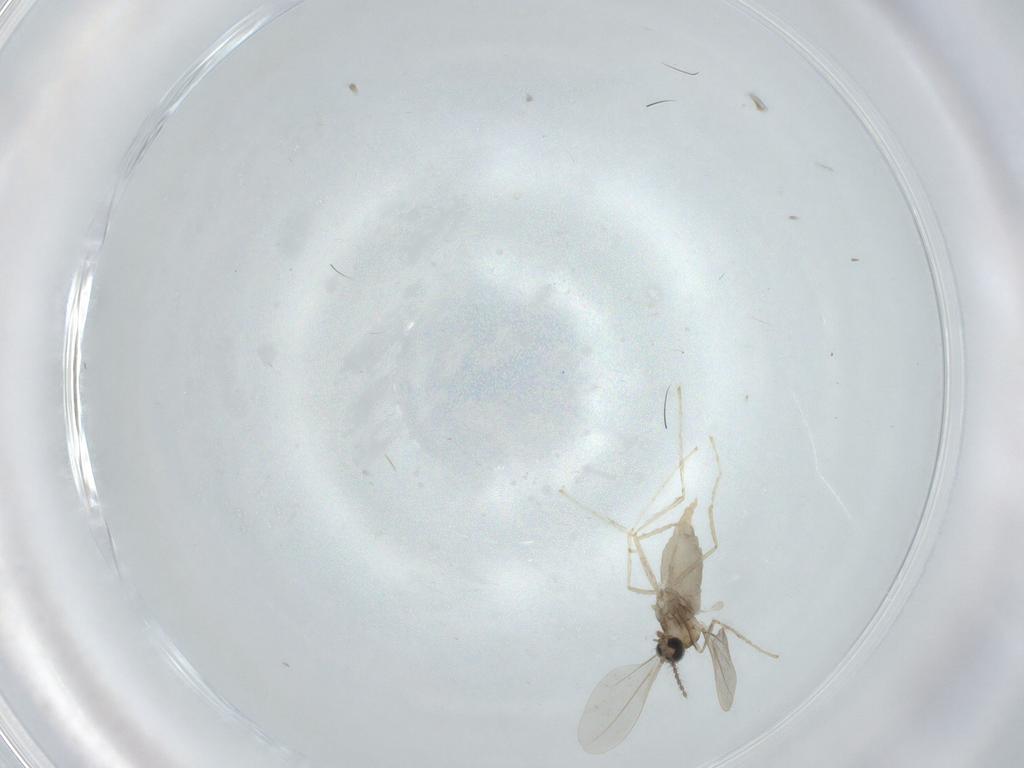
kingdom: Animalia
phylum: Arthropoda
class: Insecta
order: Diptera
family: Cecidomyiidae
